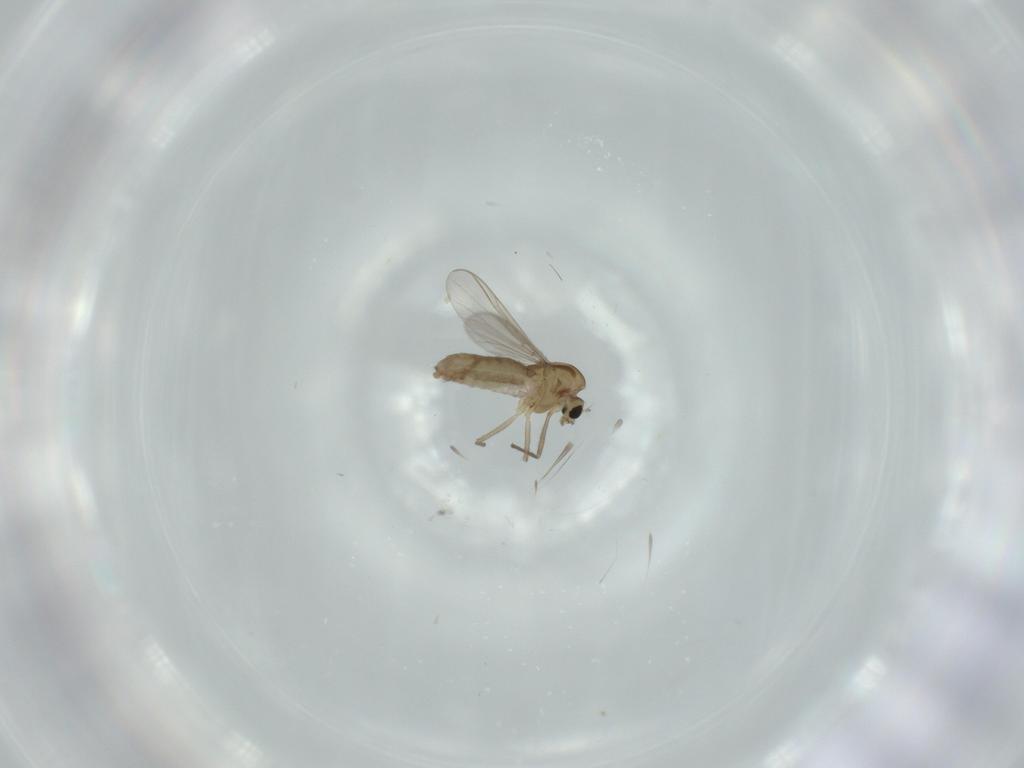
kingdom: Animalia
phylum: Arthropoda
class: Insecta
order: Diptera
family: Chironomidae
